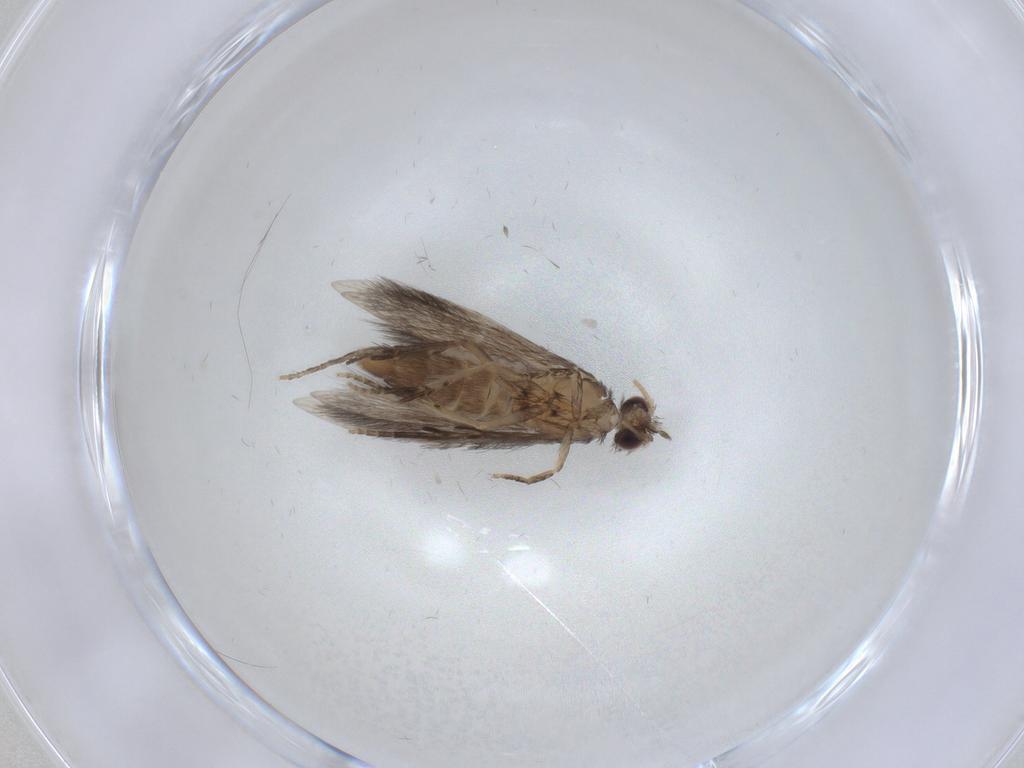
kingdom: Animalia
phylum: Arthropoda
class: Insecta
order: Trichoptera
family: Hydroptilidae
